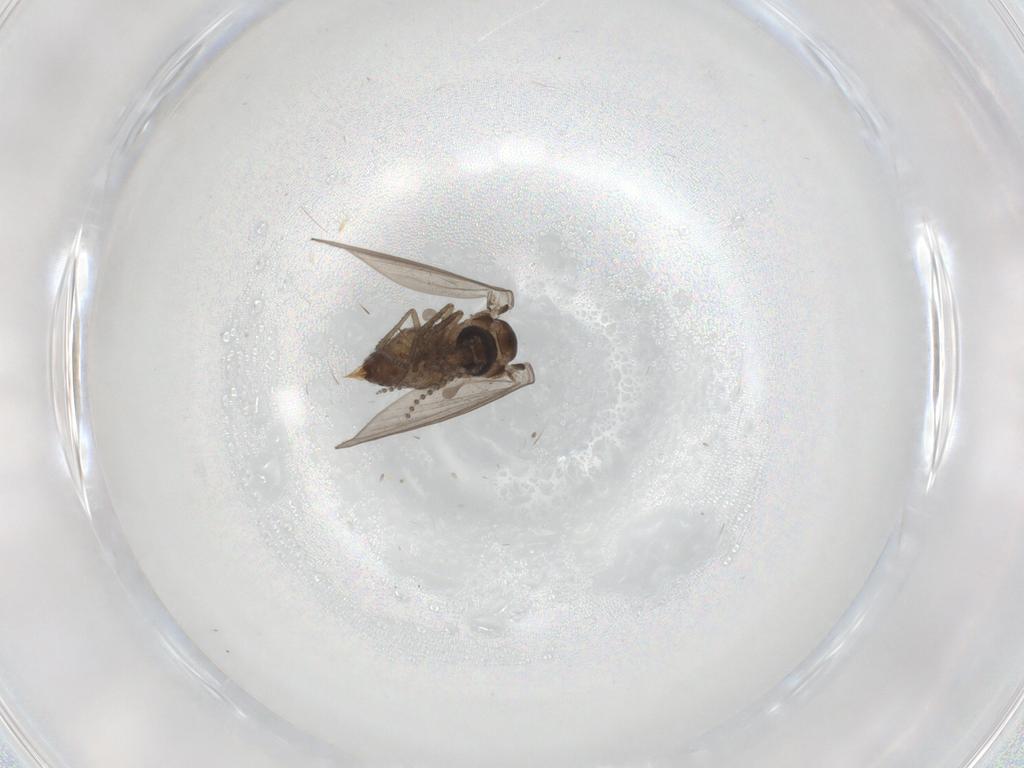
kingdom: Animalia
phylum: Arthropoda
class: Insecta
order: Diptera
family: Psychodidae
